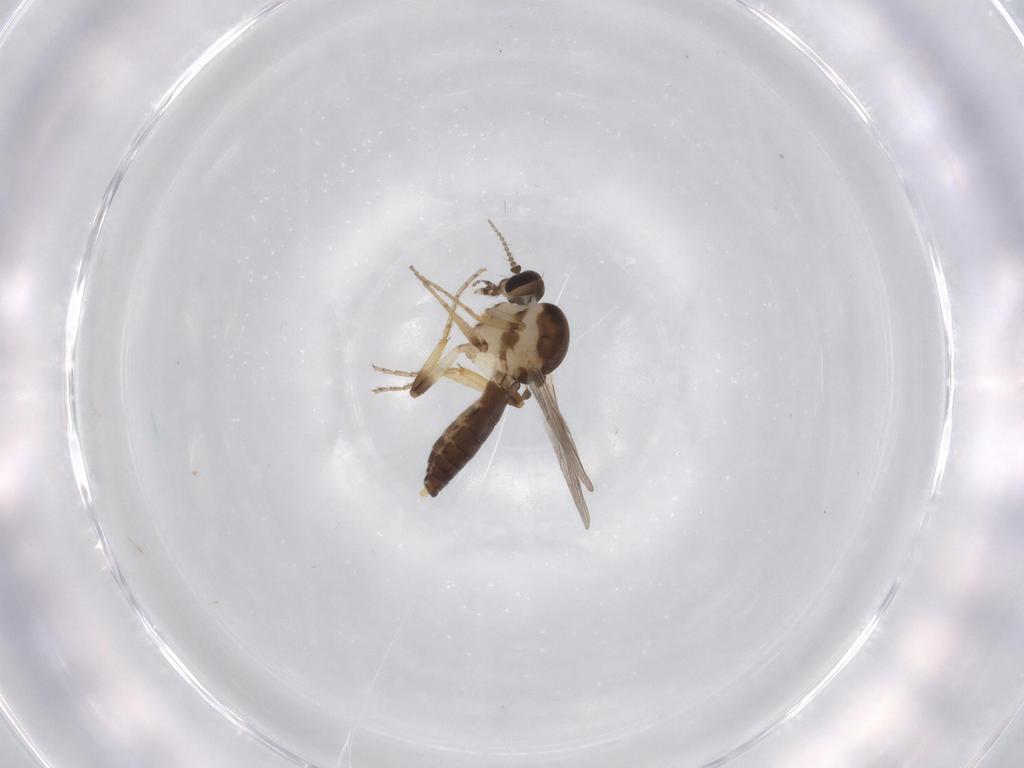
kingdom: Animalia
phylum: Arthropoda
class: Insecta
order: Diptera
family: Ceratopogonidae
